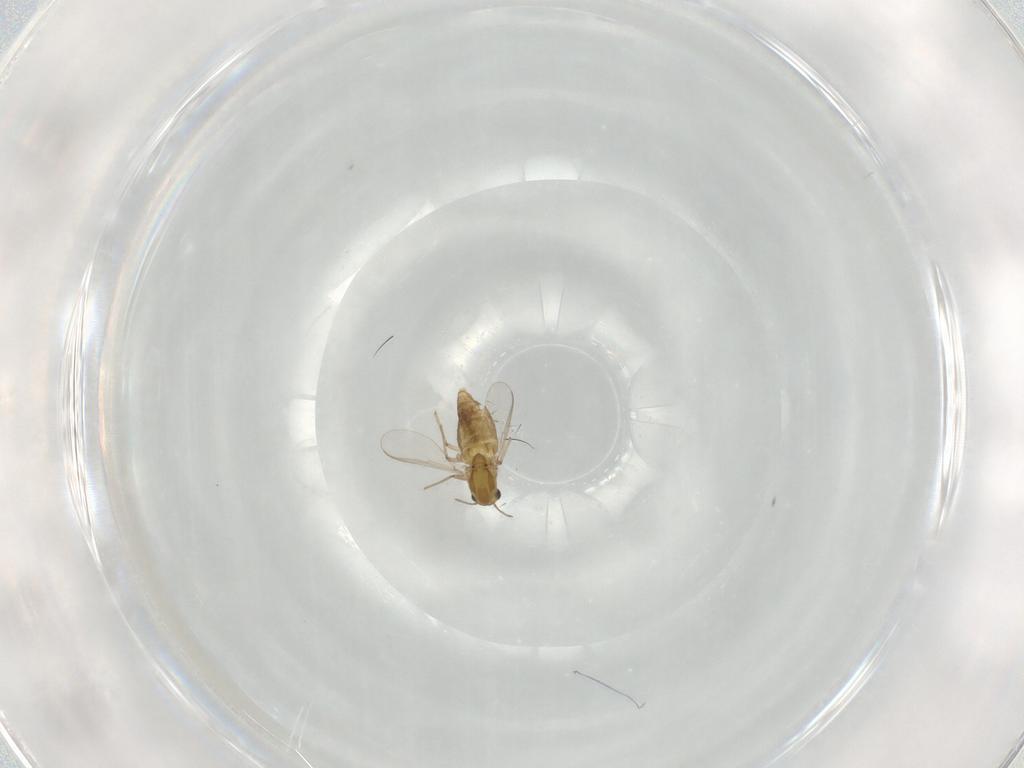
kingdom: Animalia
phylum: Arthropoda
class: Insecta
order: Diptera
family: Chironomidae
